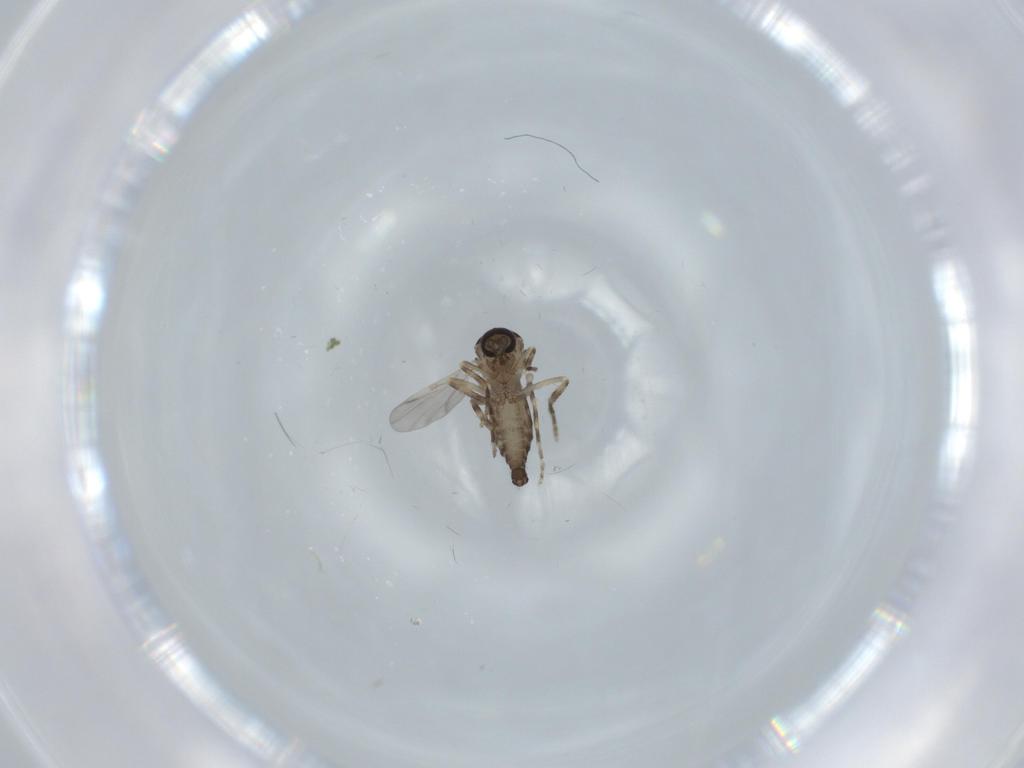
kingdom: Animalia
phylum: Arthropoda
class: Insecta
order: Diptera
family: Ceratopogonidae
